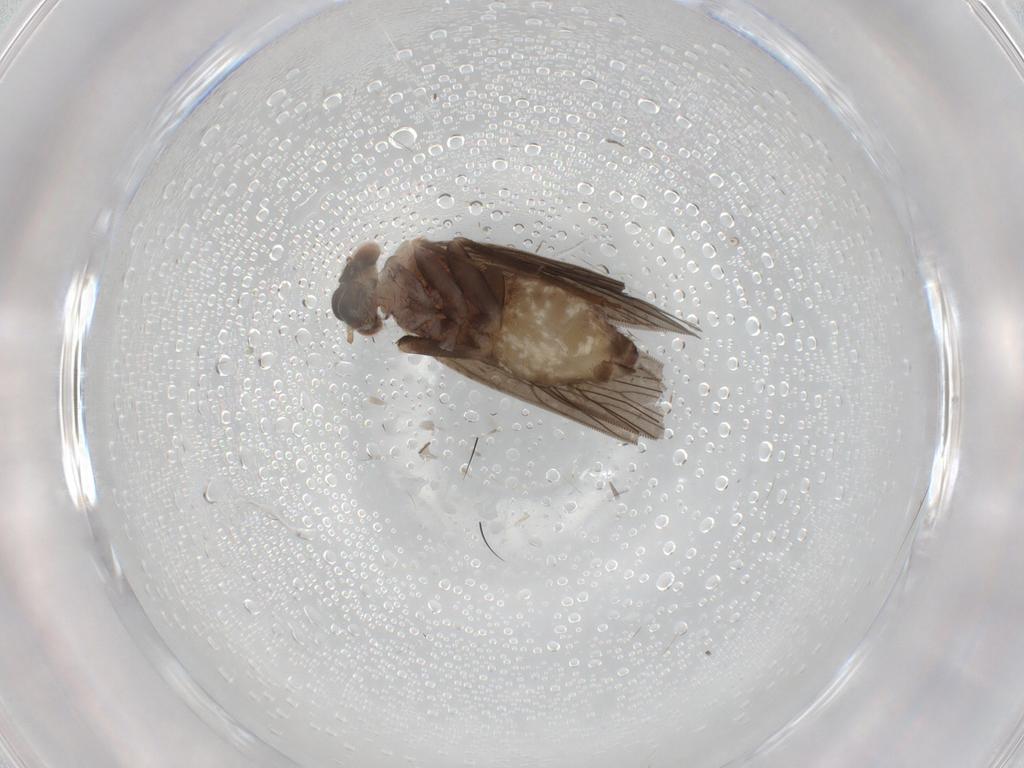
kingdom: Animalia
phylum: Arthropoda
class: Insecta
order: Psocodea
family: Lepidopsocidae
